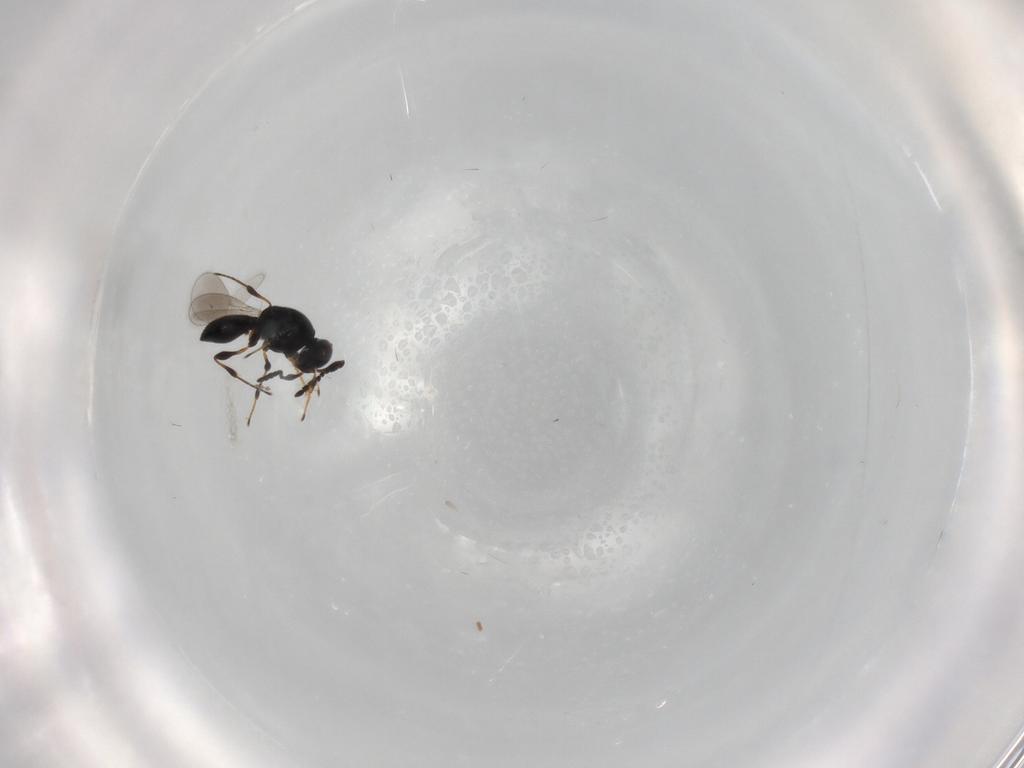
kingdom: Animalia
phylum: Arthropoda
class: Insecta
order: Hymenoptera
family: Platygastridae
